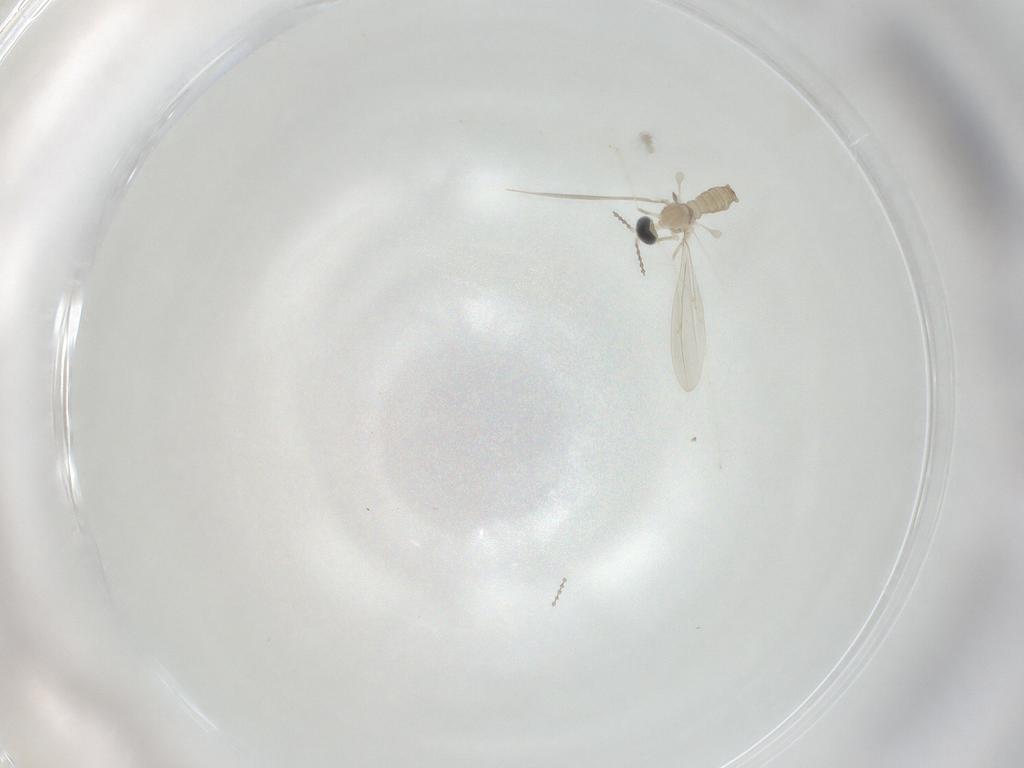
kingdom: Animalia
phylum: Arthropoda
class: Insecta
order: Diptera
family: Cecidomyiidae
